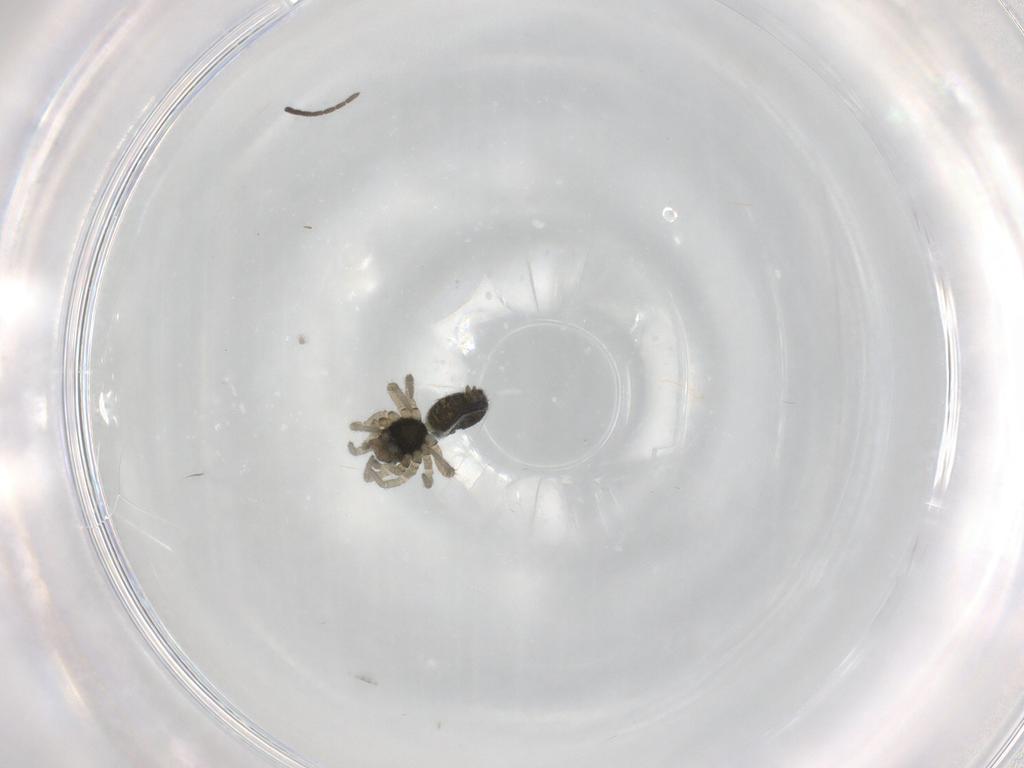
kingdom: Animalia
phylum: Arthropoda
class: Arachnida
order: Araneae
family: Linyphiidae
